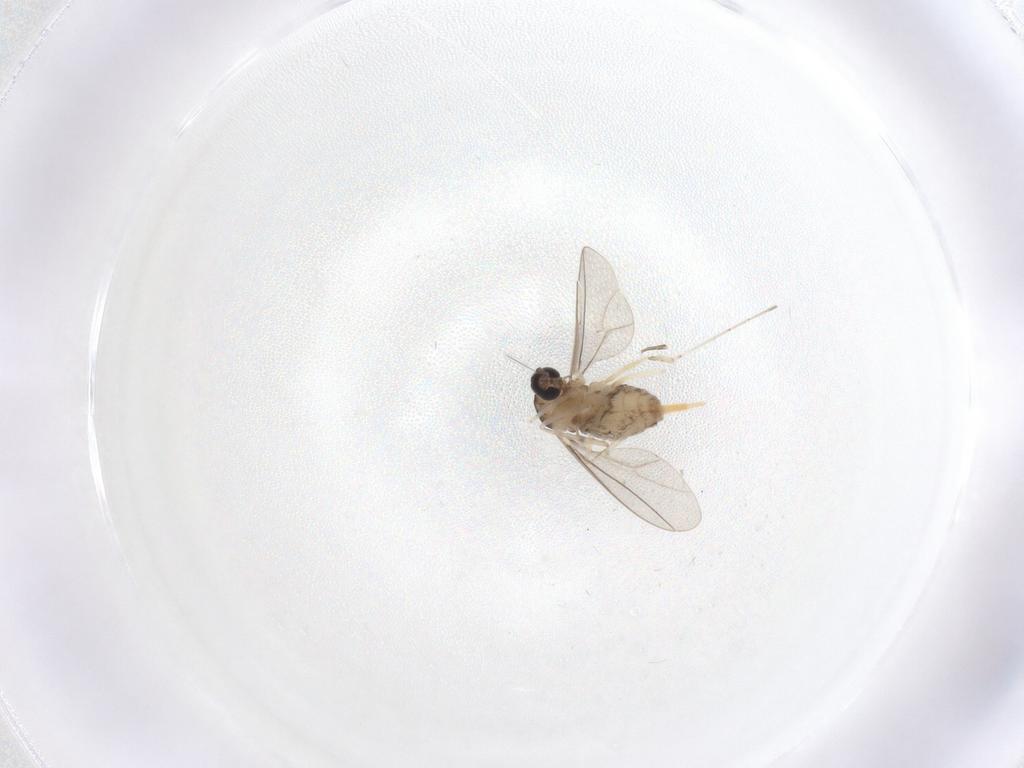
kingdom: Animalia
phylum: Arthropoda
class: Insecta
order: Diptera
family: Cecidomyiidae
